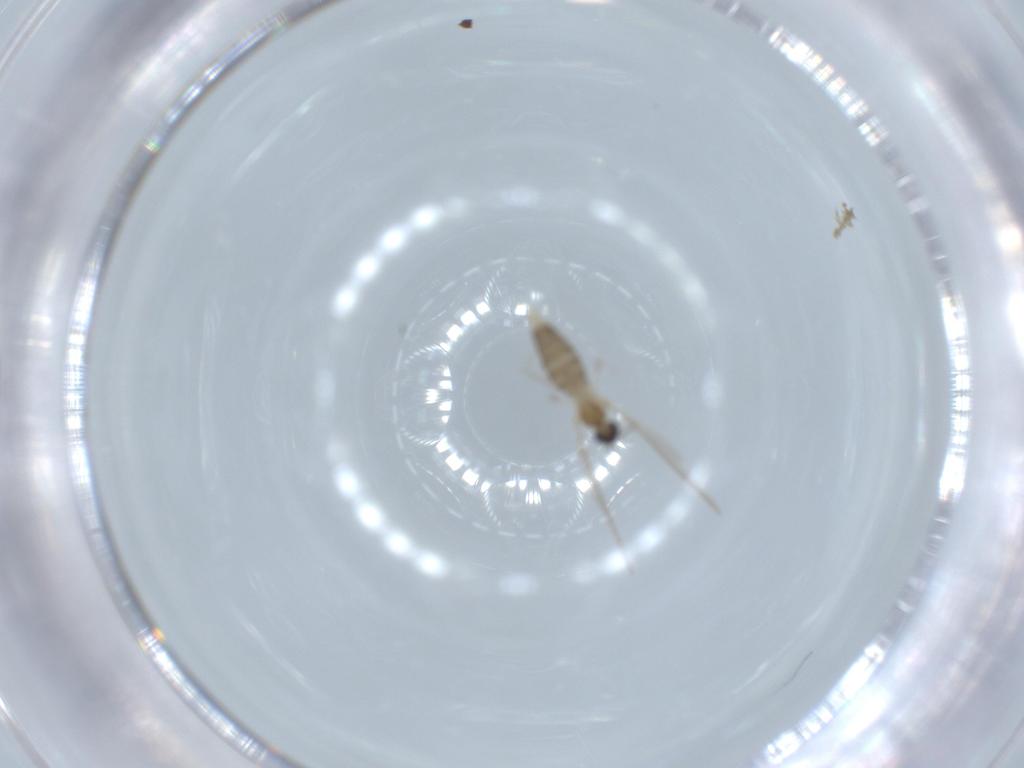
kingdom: Animalia
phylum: Arthropoda
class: Insecta
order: Diptera
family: Cecidomyiidae
